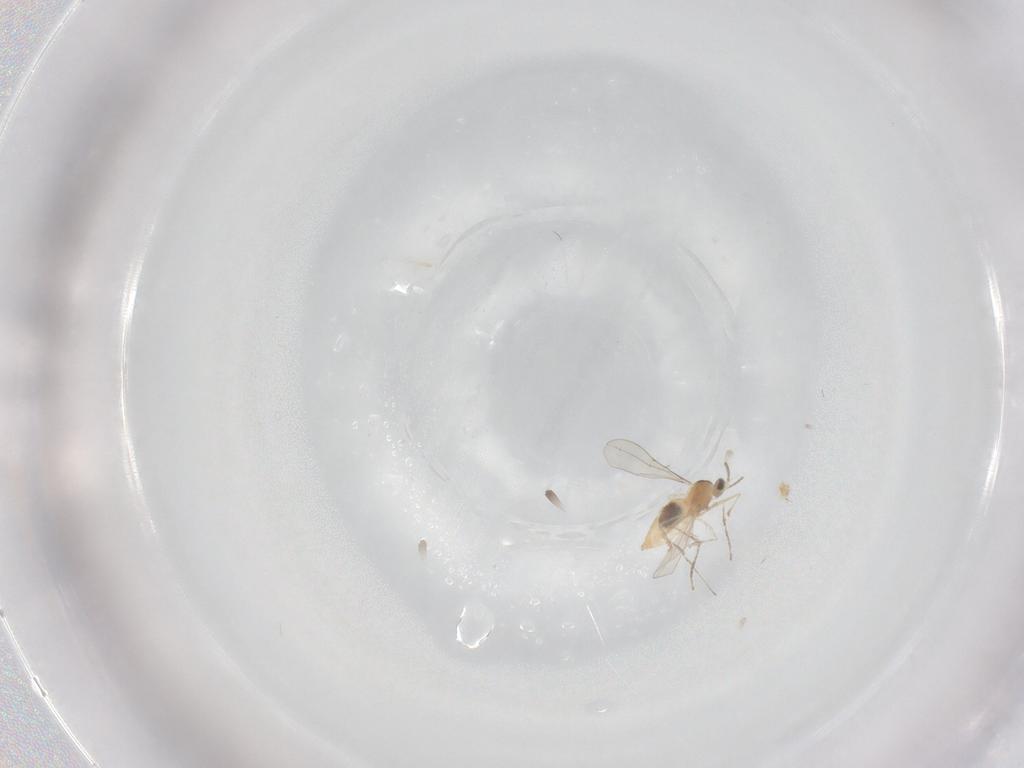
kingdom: Animalia
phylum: Arthropoda
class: Insecta
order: Diptera
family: Cecidomyiidae
